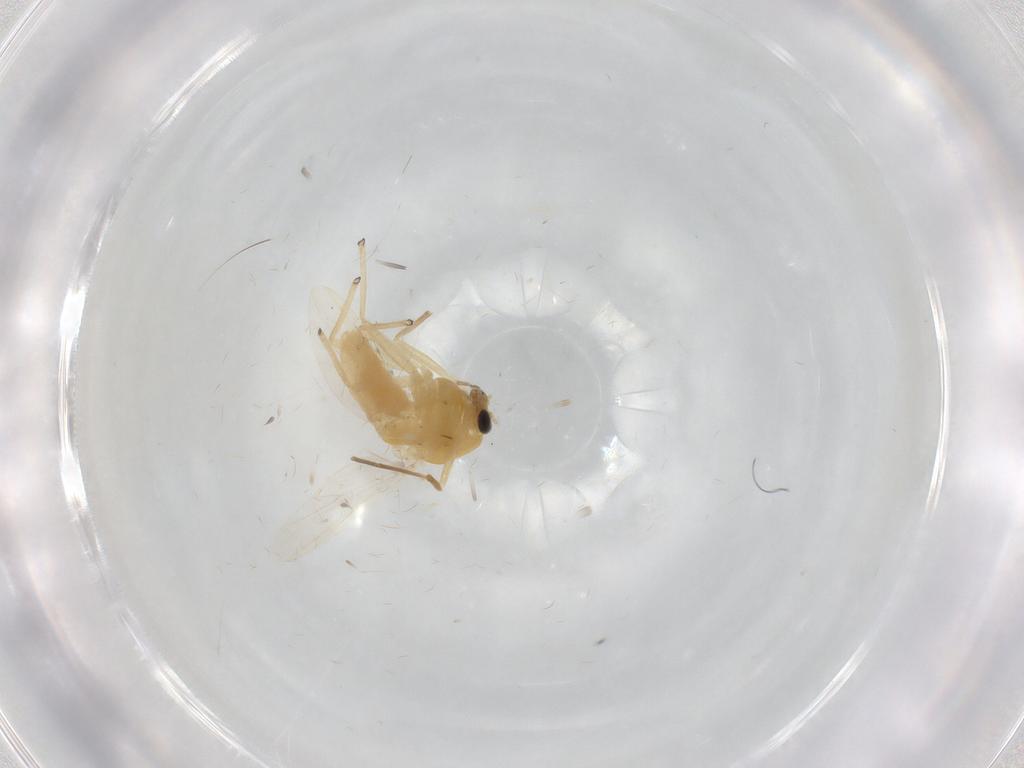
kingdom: Animalia
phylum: Arthropoda
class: Insecta
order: Diptera
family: Chironomidae
